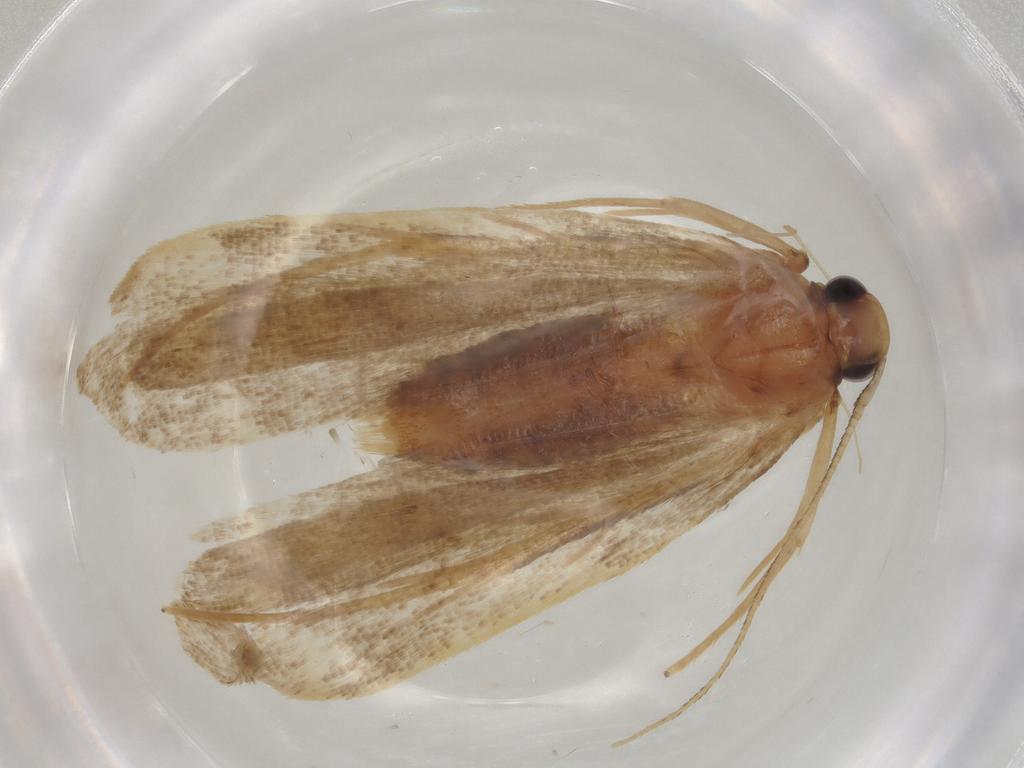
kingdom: Animalia
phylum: Arthropoda
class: Insecta
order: Lepidoptera
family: Lecithoceridae
